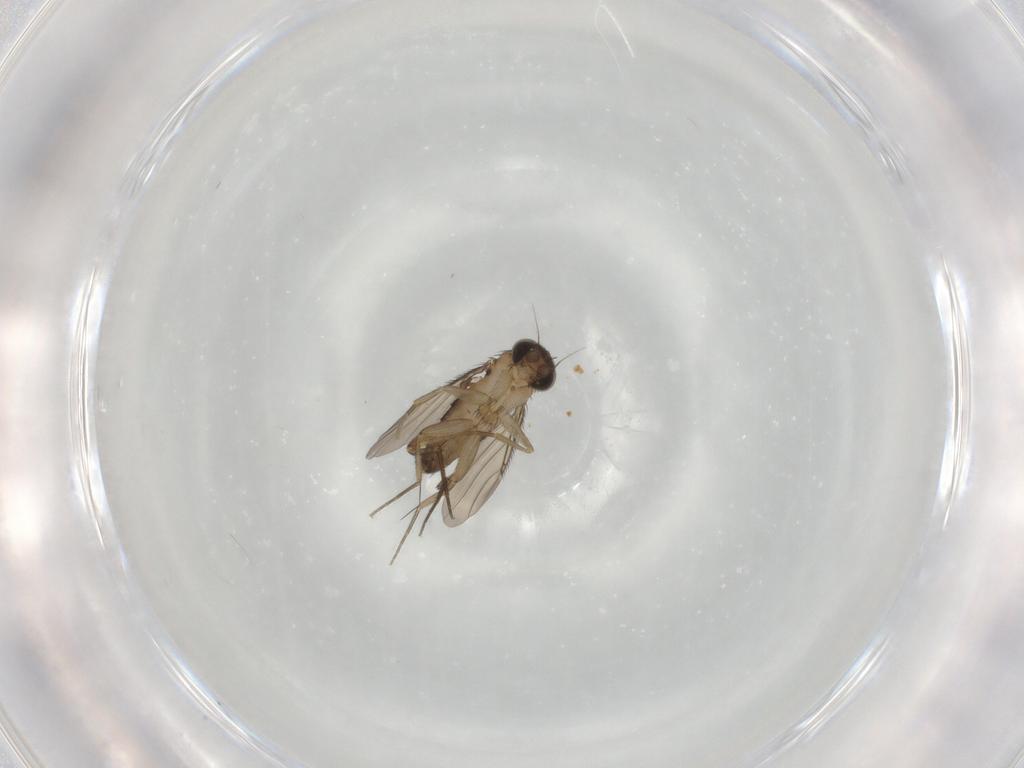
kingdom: Animalia
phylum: Arthropoda
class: Insecta
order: Diptera
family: Phoridae
